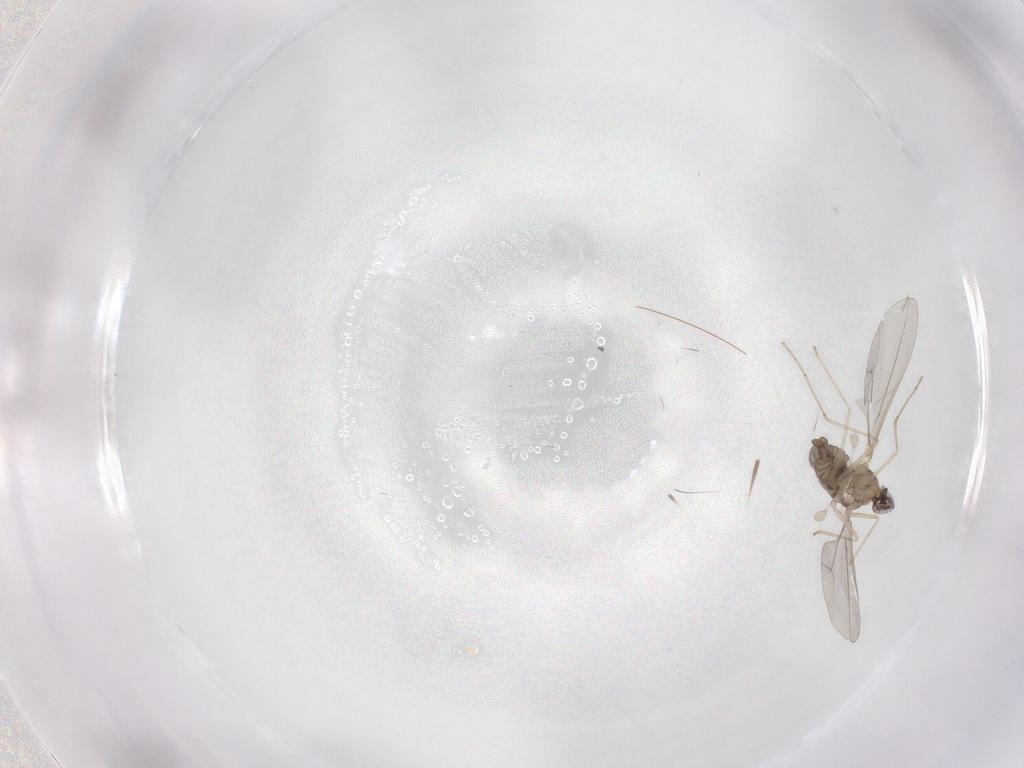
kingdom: Animalia
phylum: Arthropoda
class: Insecta
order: Diptera
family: Cecidomyiidae
